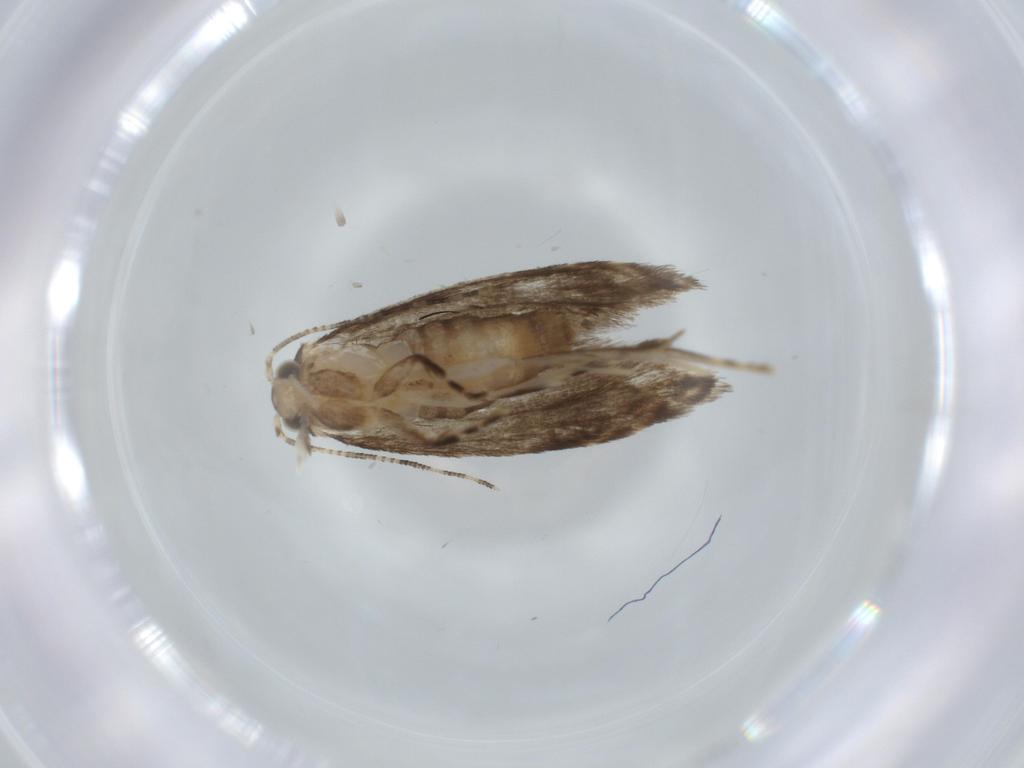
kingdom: Animalia
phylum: Arthropoda
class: Insecta
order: Lepidoptera
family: Tineidae
